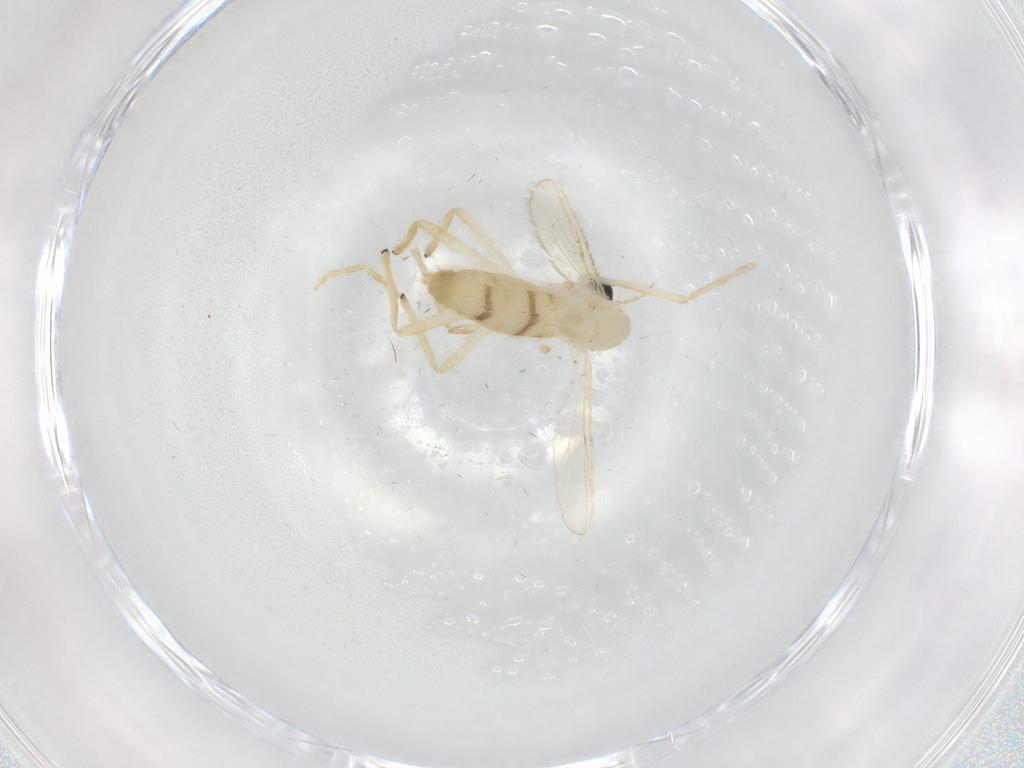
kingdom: Animalia
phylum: Arthropoda
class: Insecta
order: Diptera
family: Chironomidae
